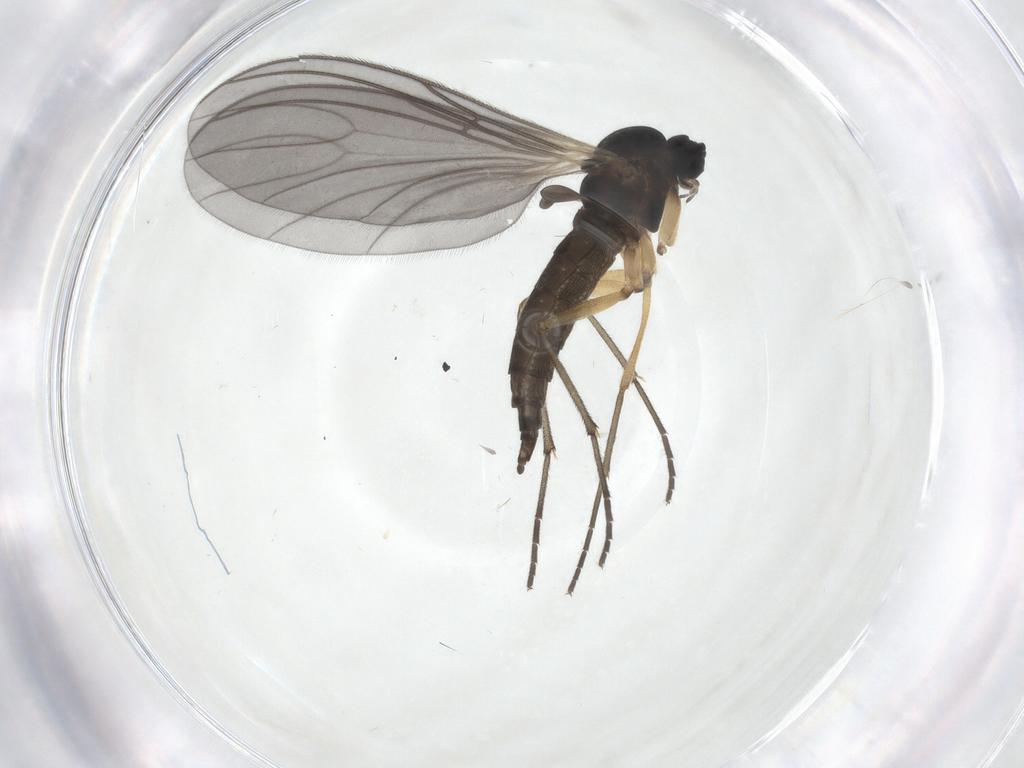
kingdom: Animalia
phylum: Arthropoda
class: Insecta
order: Diptera
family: Sciaridae
